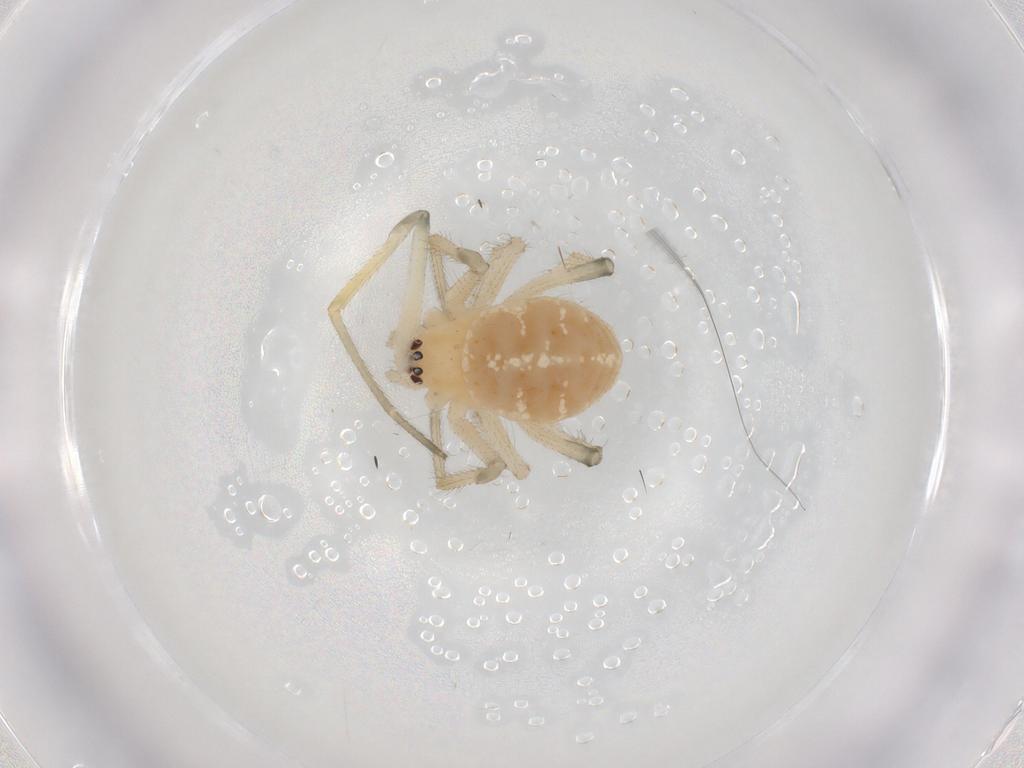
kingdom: Animalia
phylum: Arthropoda
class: Arachnida
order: Araneae
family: Theridiidae
